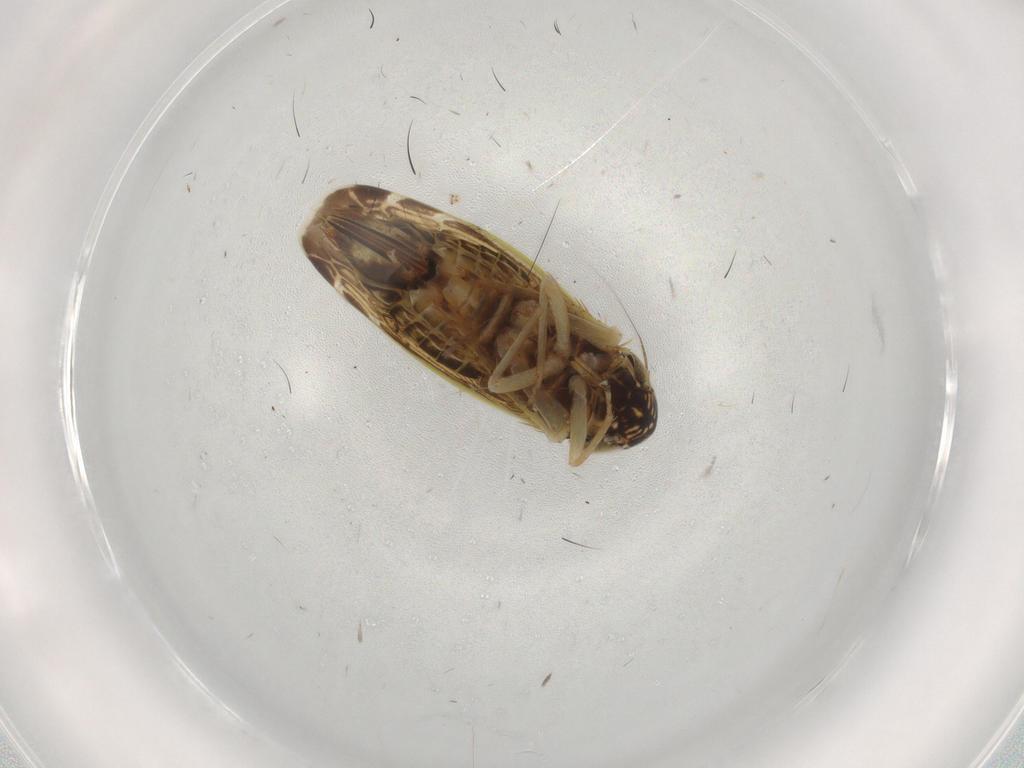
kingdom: Animalia
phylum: Arthropoda
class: Insecta
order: Hemiptera
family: Cicadellidae
